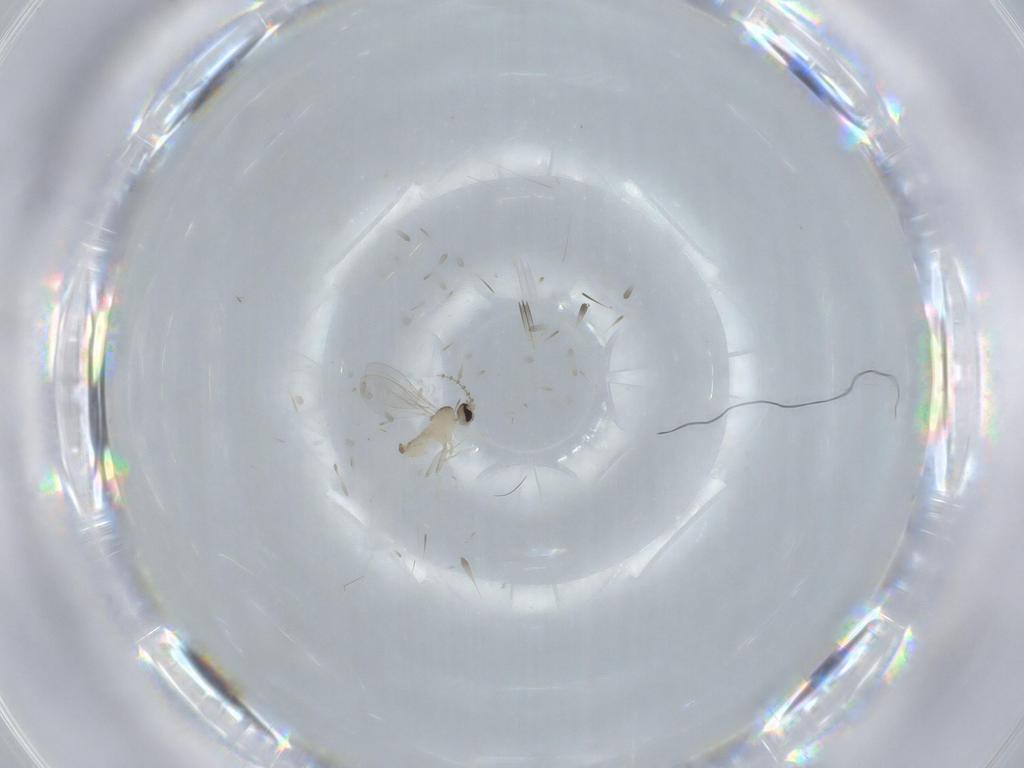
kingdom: Animalia
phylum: Arthropoda
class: Insecta
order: Diptera
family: Cecidomyiidae
